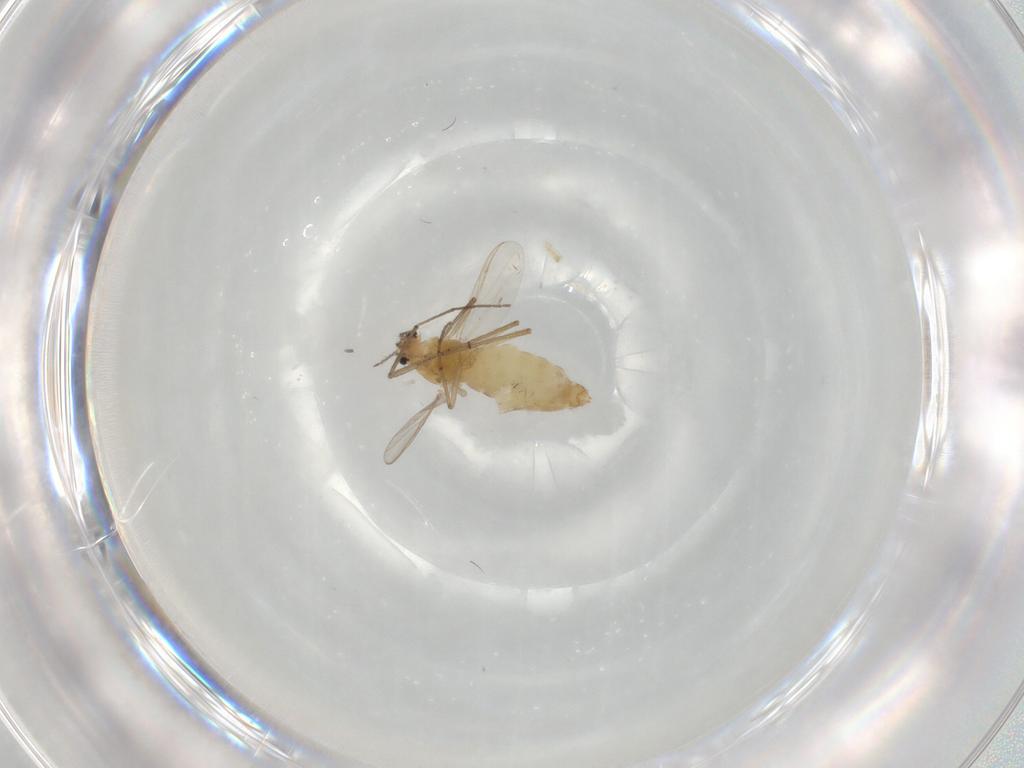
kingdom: Animalia
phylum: Arthropoda
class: Insecta
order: Diptera
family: Chironomidae
